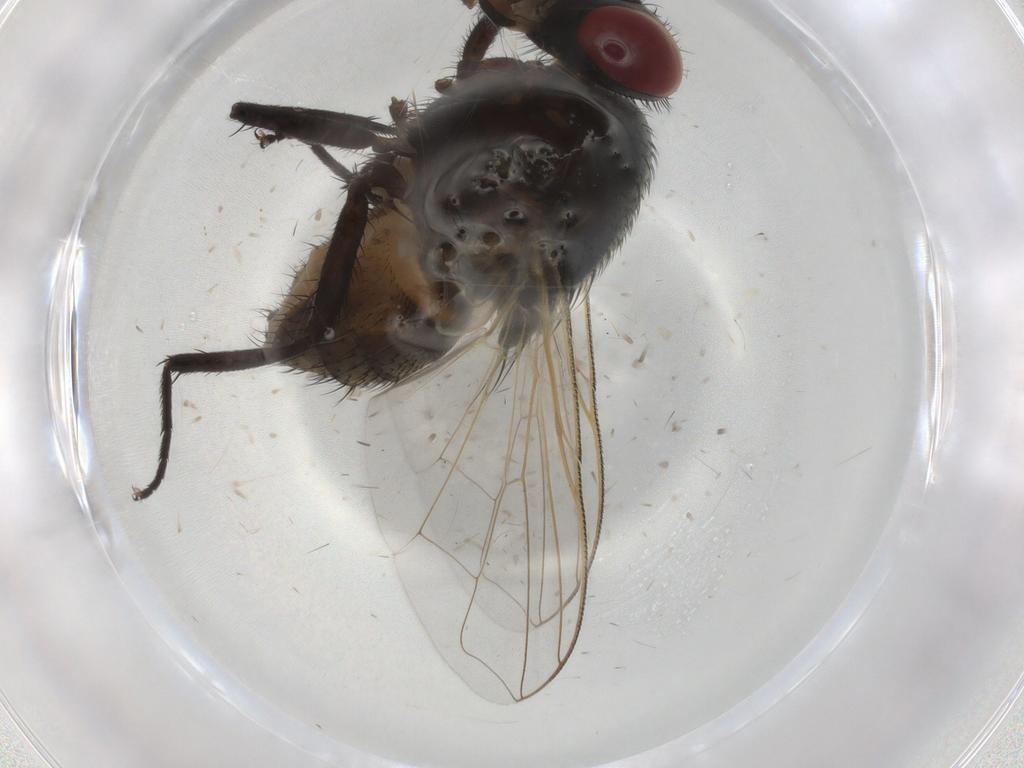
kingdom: Animalia
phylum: Arthropoda
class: Insecta
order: Diptera
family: Muscidae
